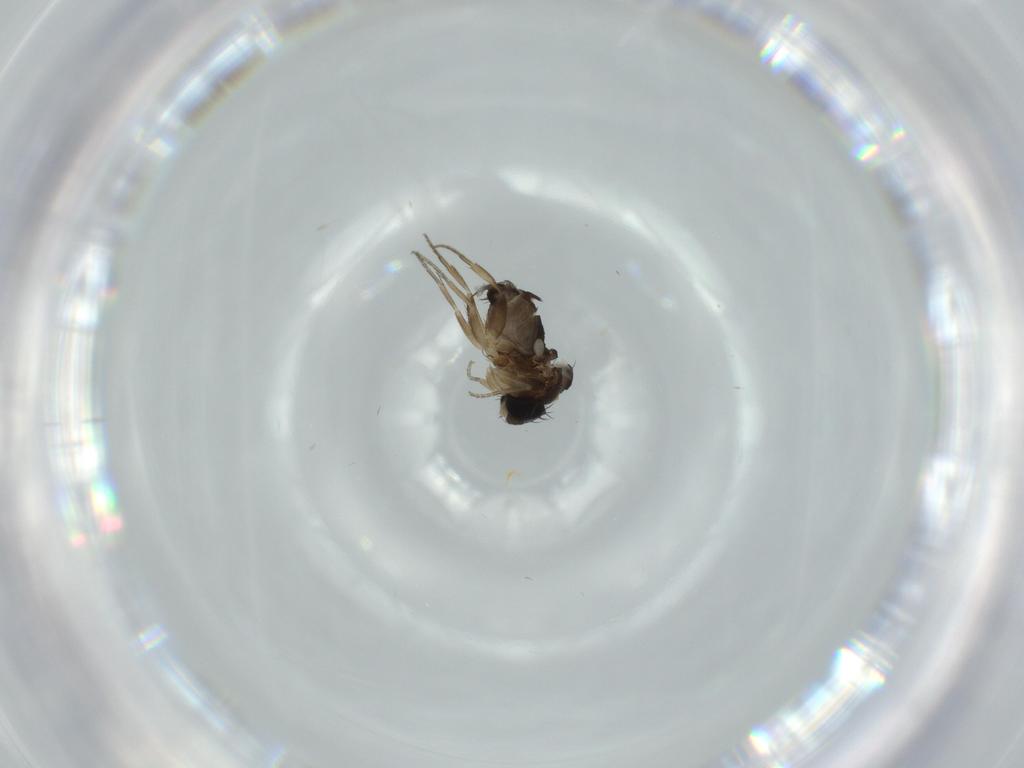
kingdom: Animalia
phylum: Arthropoda
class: Insecta
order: Diptera
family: Phoridae
